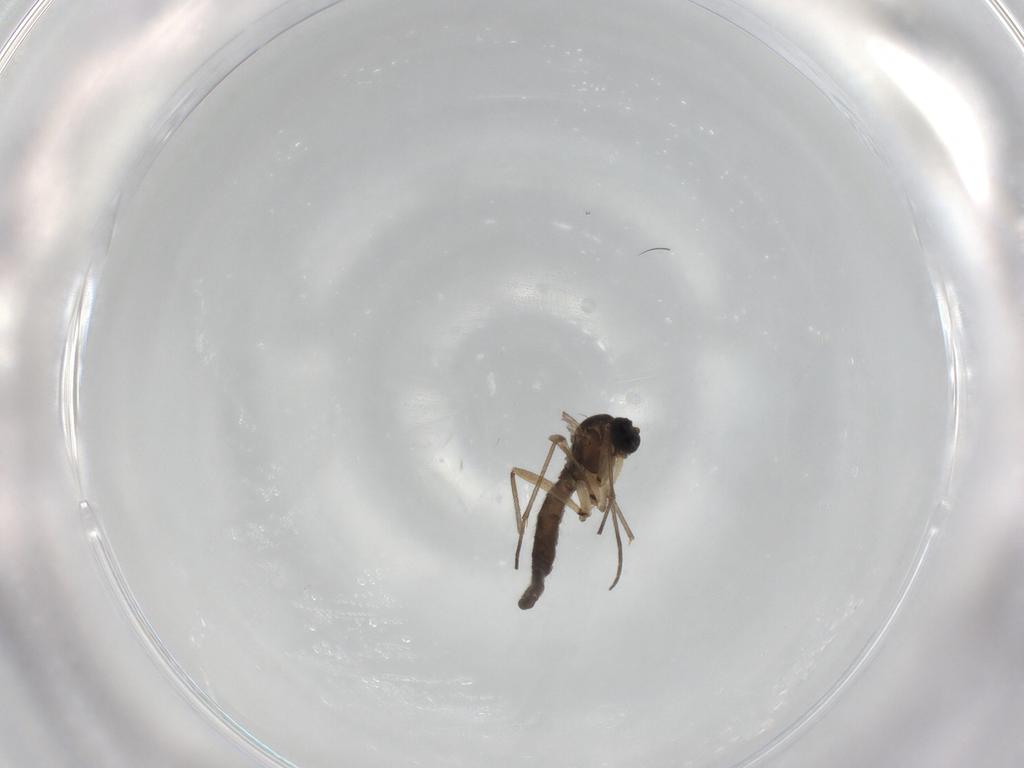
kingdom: Animalia
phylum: Arthropoda
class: Insecta
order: Diptera
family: Sciaridae
